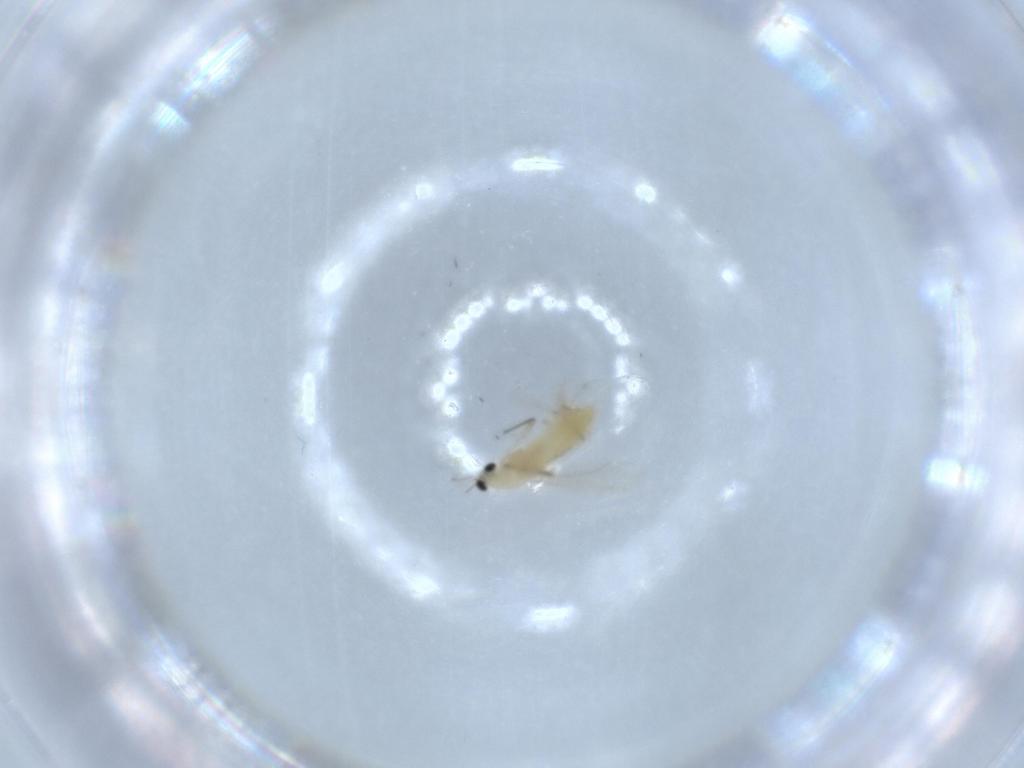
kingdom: Animalia
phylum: Arthropoda
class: Insecta
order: Diptera
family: Chironomidae
